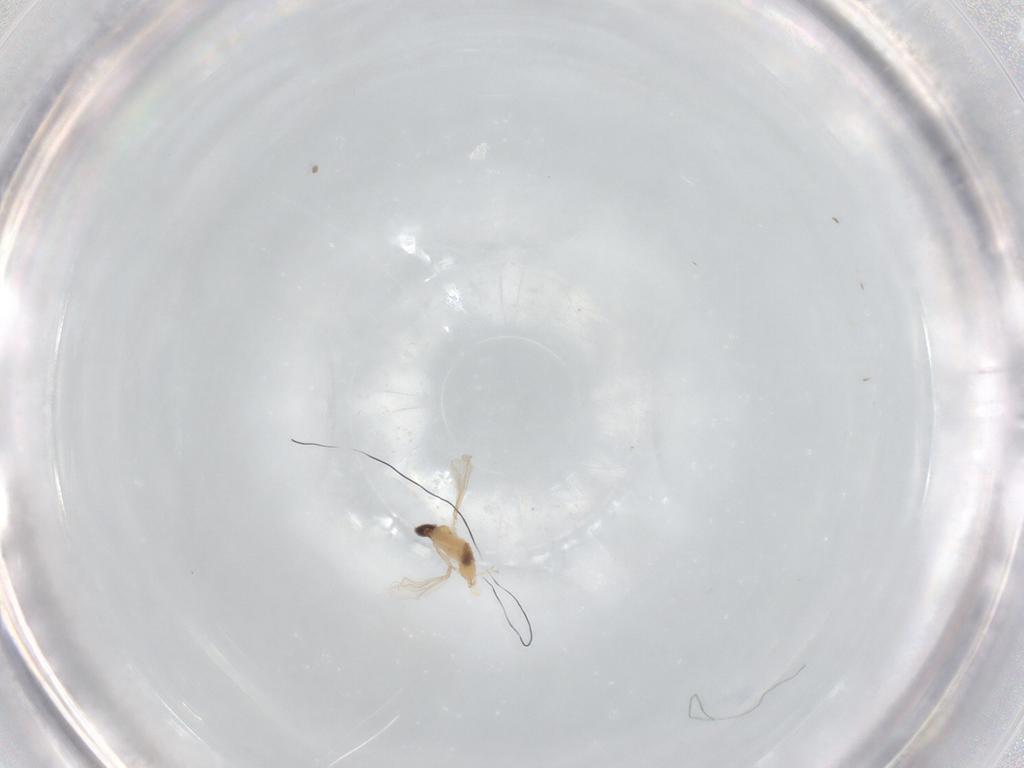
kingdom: Animalia
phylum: Arthropoda
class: Insecta
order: Diptera
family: Cecidomyiidae
